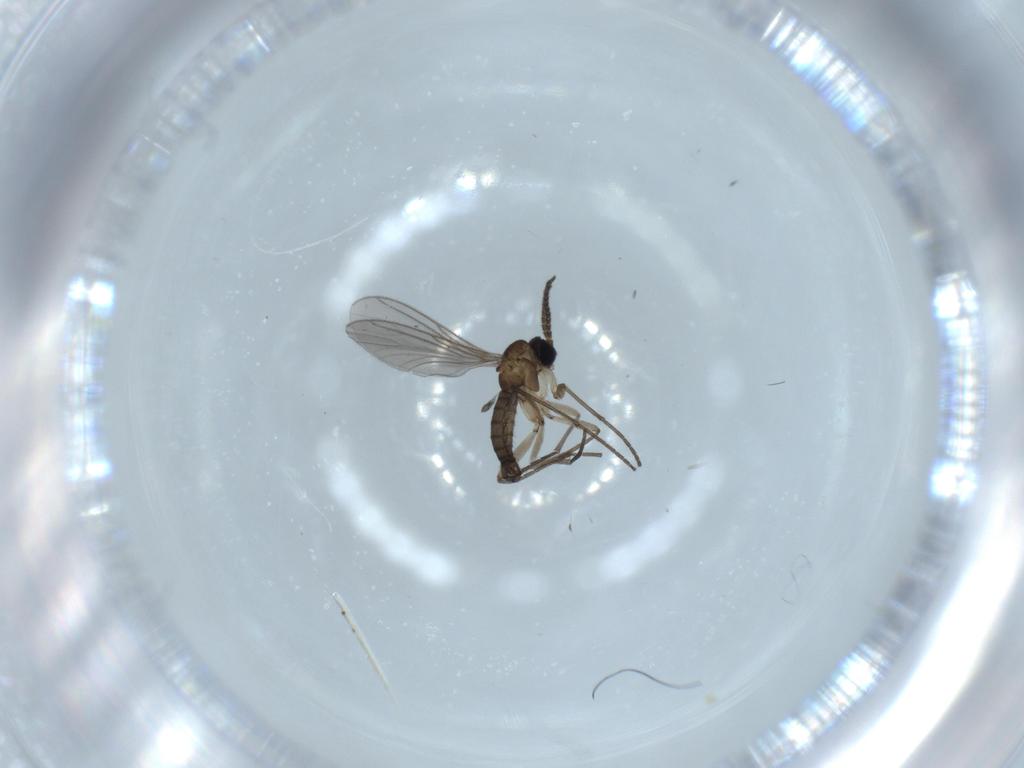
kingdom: Animalia
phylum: Arthropoda
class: Insecta
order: Diptera
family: Sciaridae
